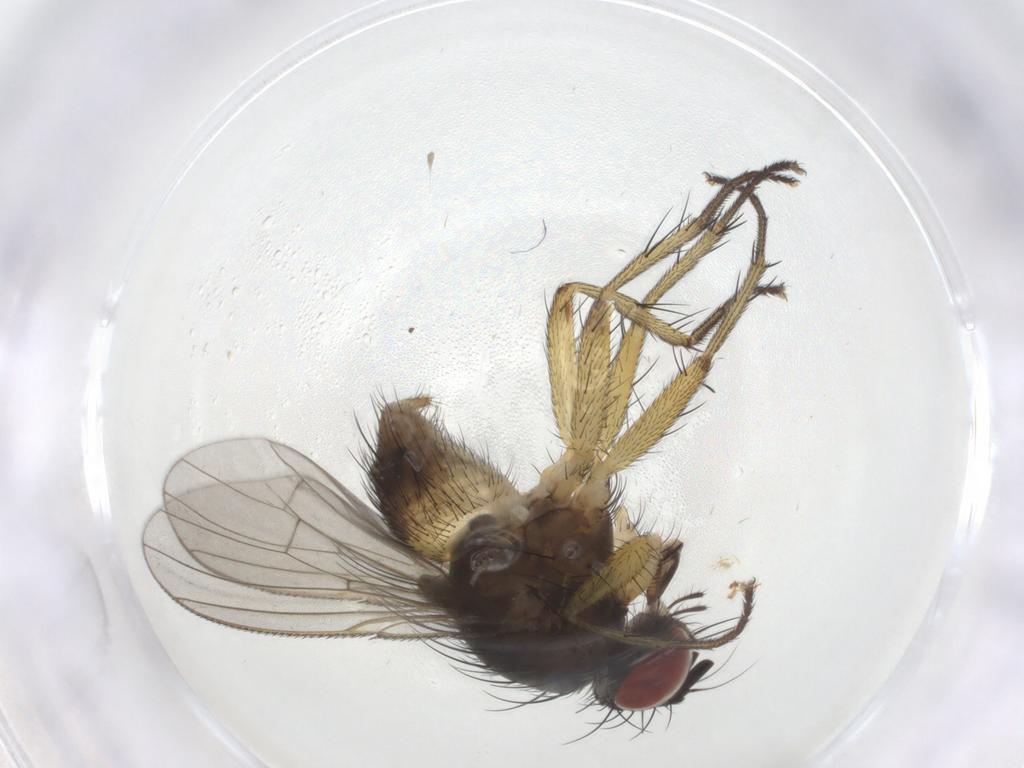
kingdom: Animalia
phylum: Arthropoda
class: Insecta
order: Diptera
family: Muscidae
